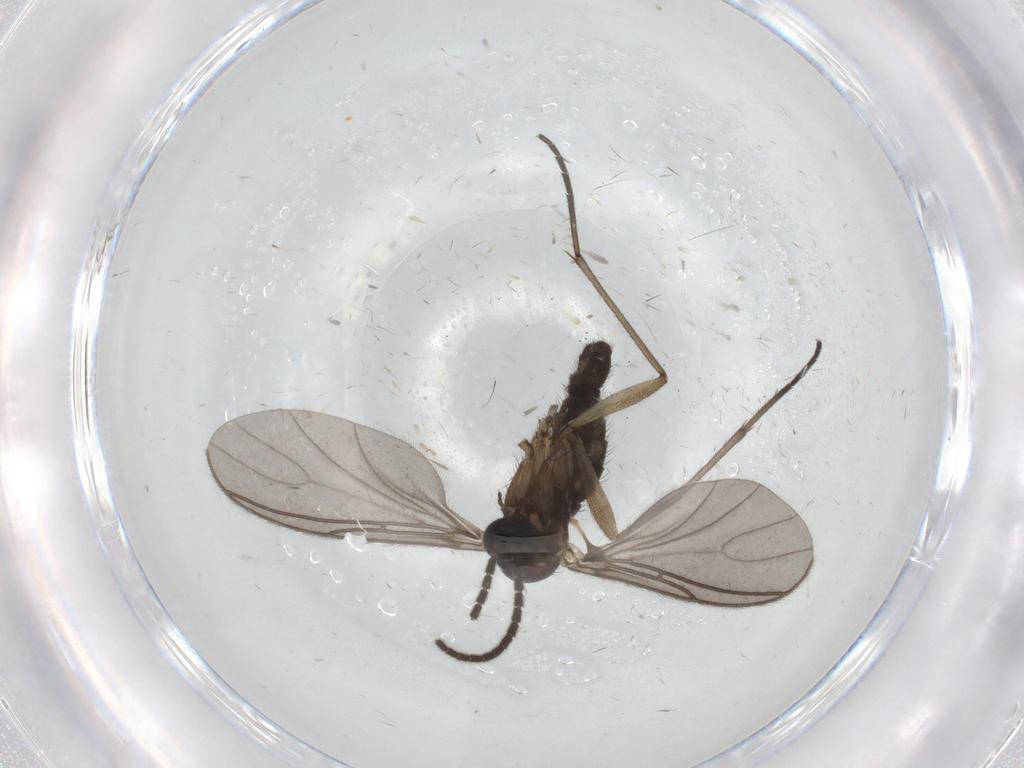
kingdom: Animalia
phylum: Arthropoda
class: Insecta
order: Diptera
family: Sciaridae
